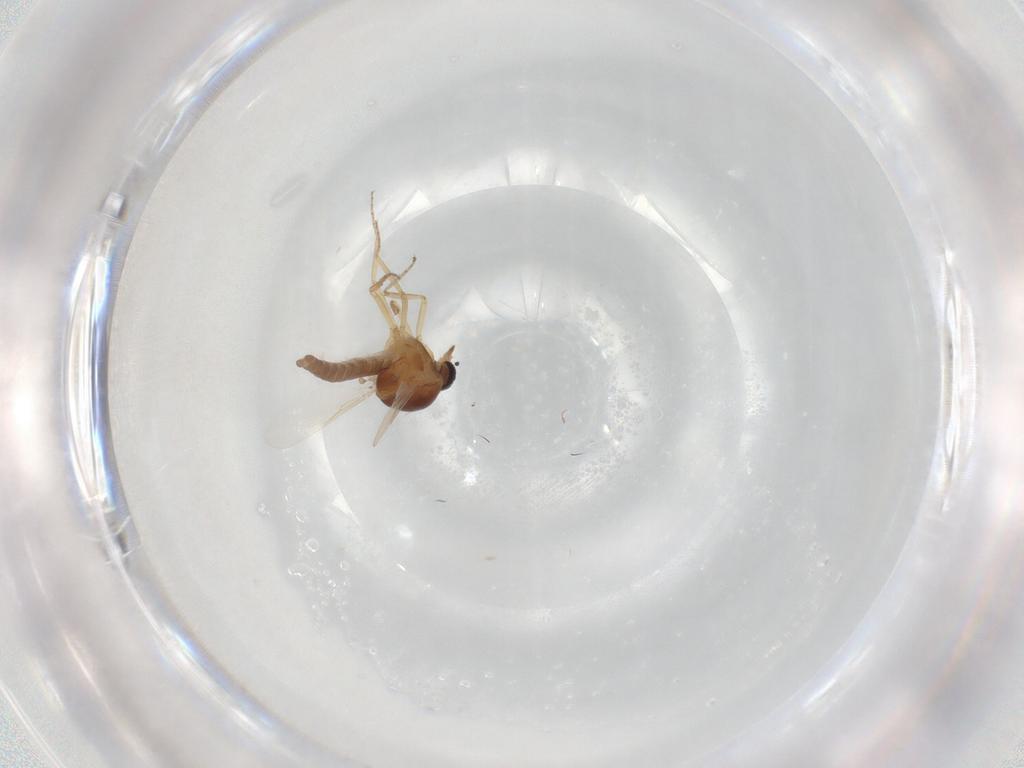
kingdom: Animalia
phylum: Arthropoda
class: Insecta
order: Diptera
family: Ceratopogonidae
